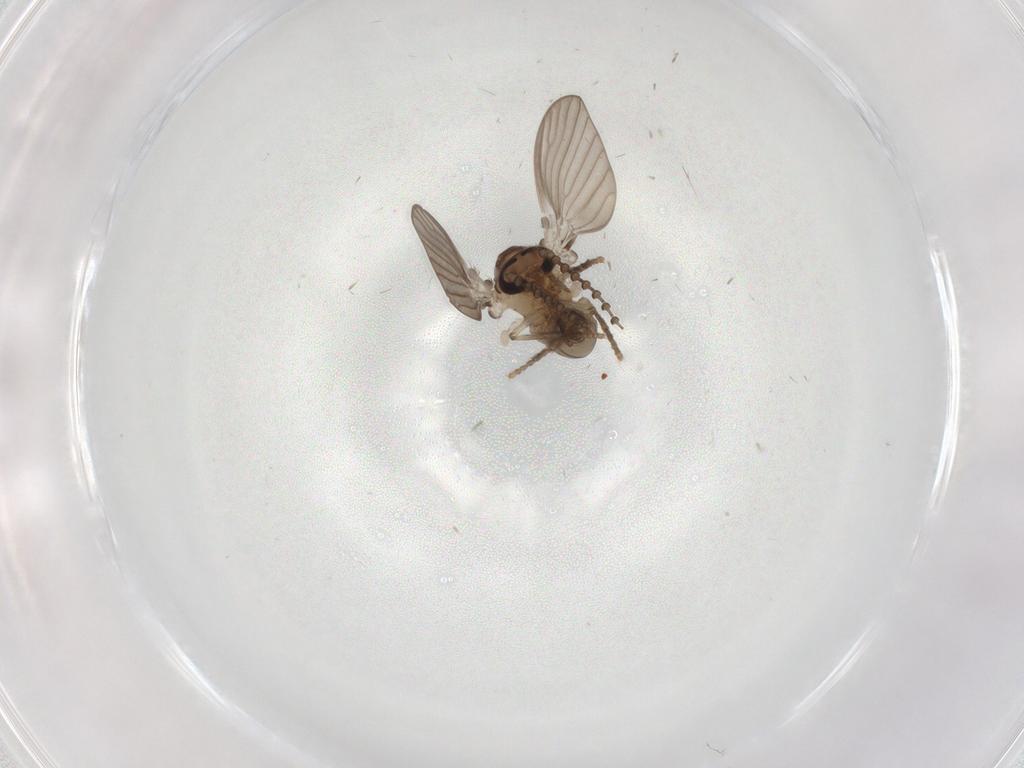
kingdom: Animalia
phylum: Arthropoda
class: Insecta
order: Diptera
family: Psychodidae
